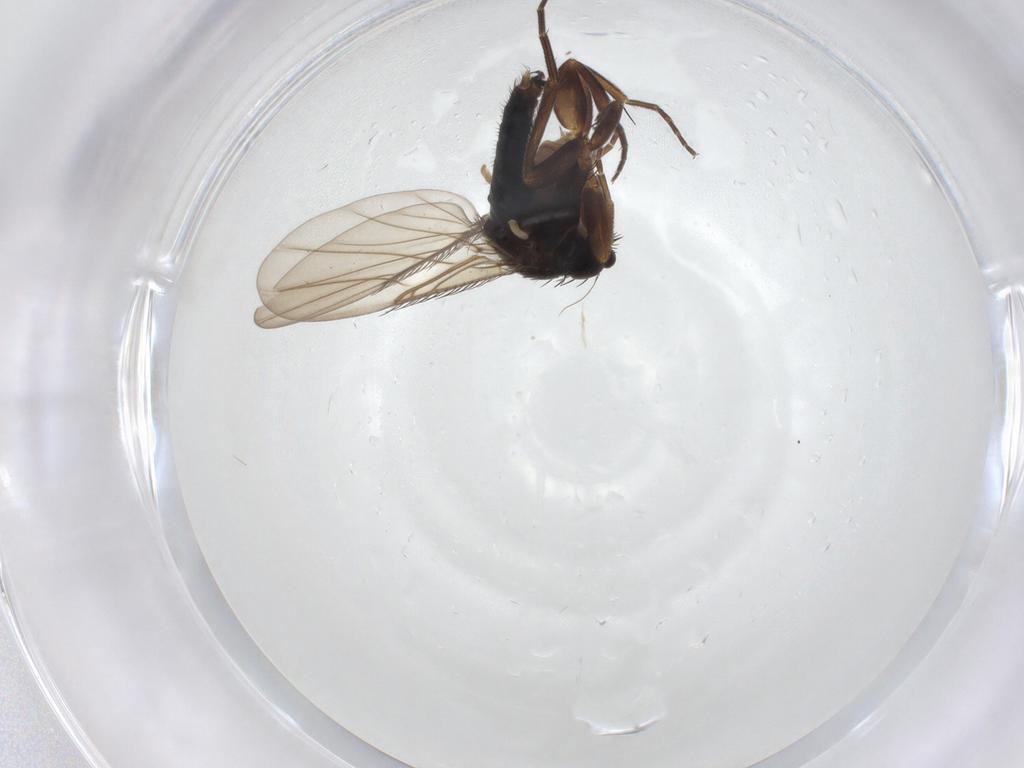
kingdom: Animalia
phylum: Arthropoda
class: Insecta
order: Diptera
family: Phoridae
